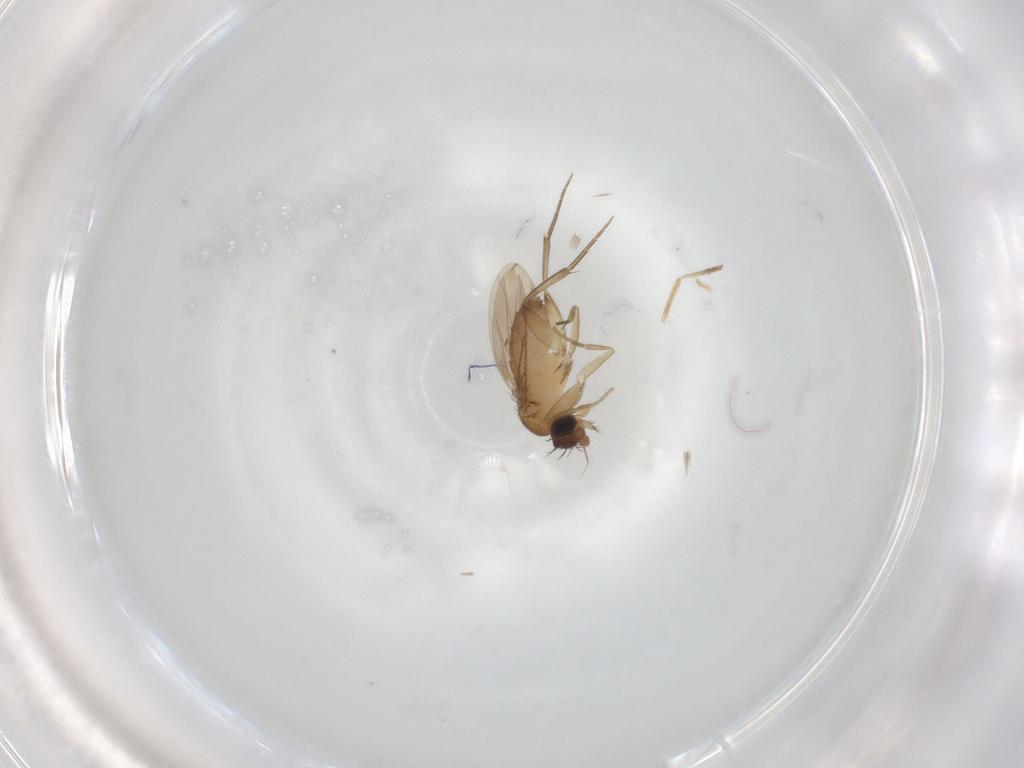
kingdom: Animalia
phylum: Arthropoda
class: Insecta
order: Diptera
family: Phoridae
